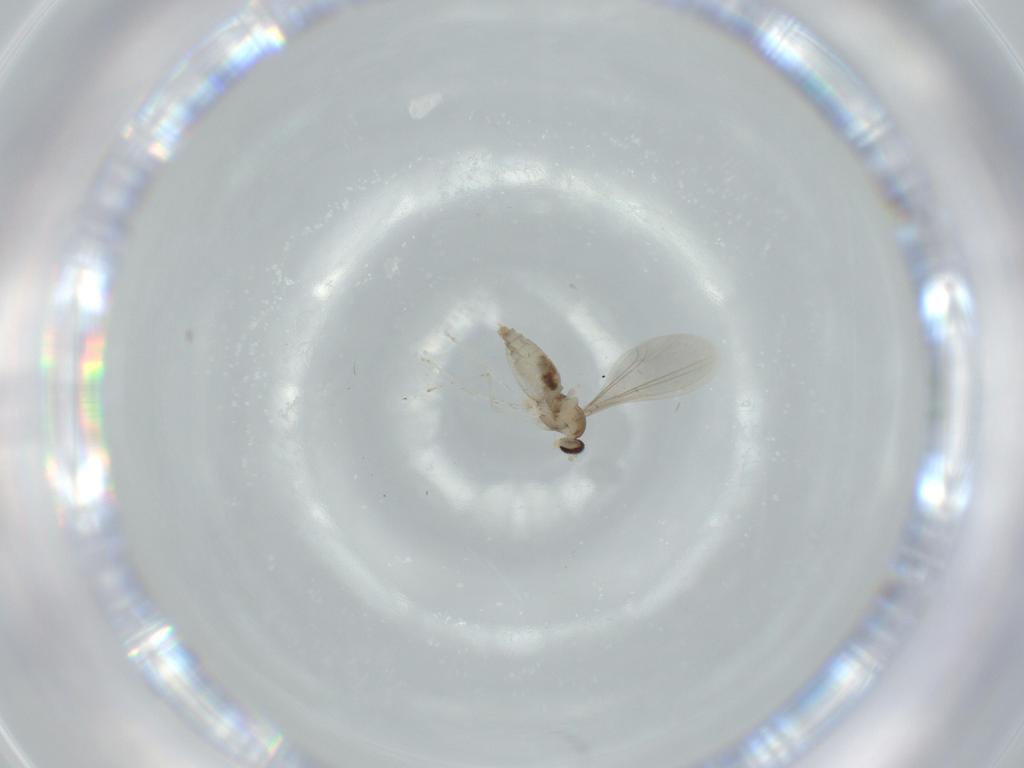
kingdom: Animalia
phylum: Arthropoda
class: Insecta
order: Diptera
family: Cecidomyiidae
